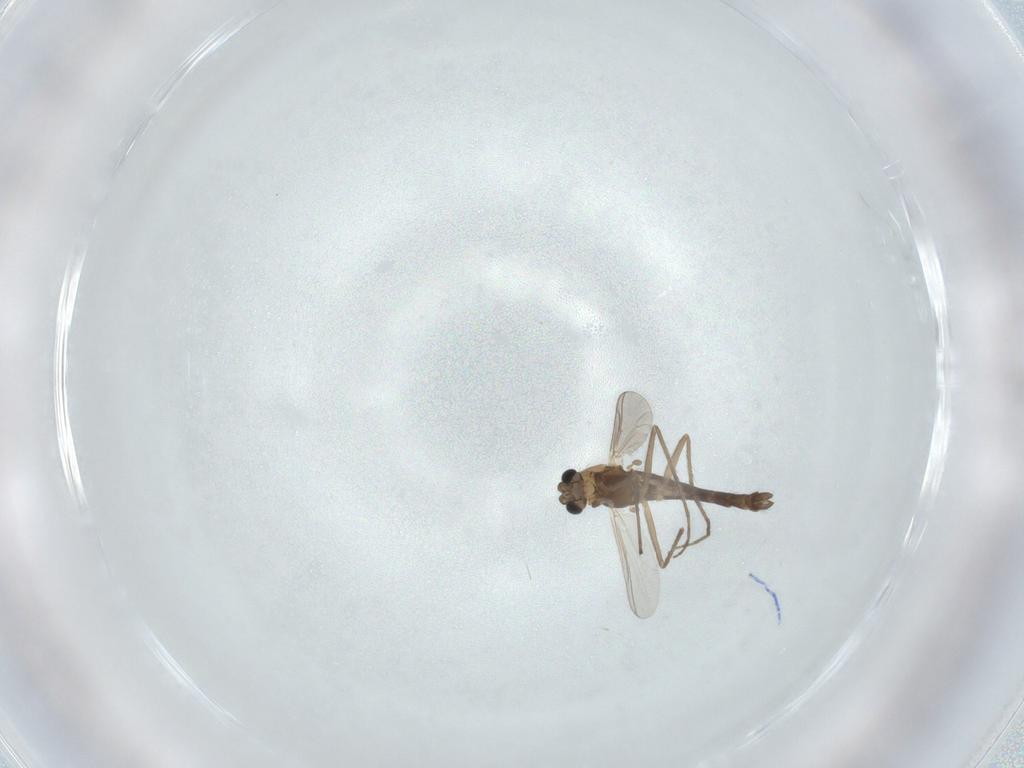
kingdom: Animalia
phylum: Arthropoda
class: Insecta
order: Diptera
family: Chironomidae
